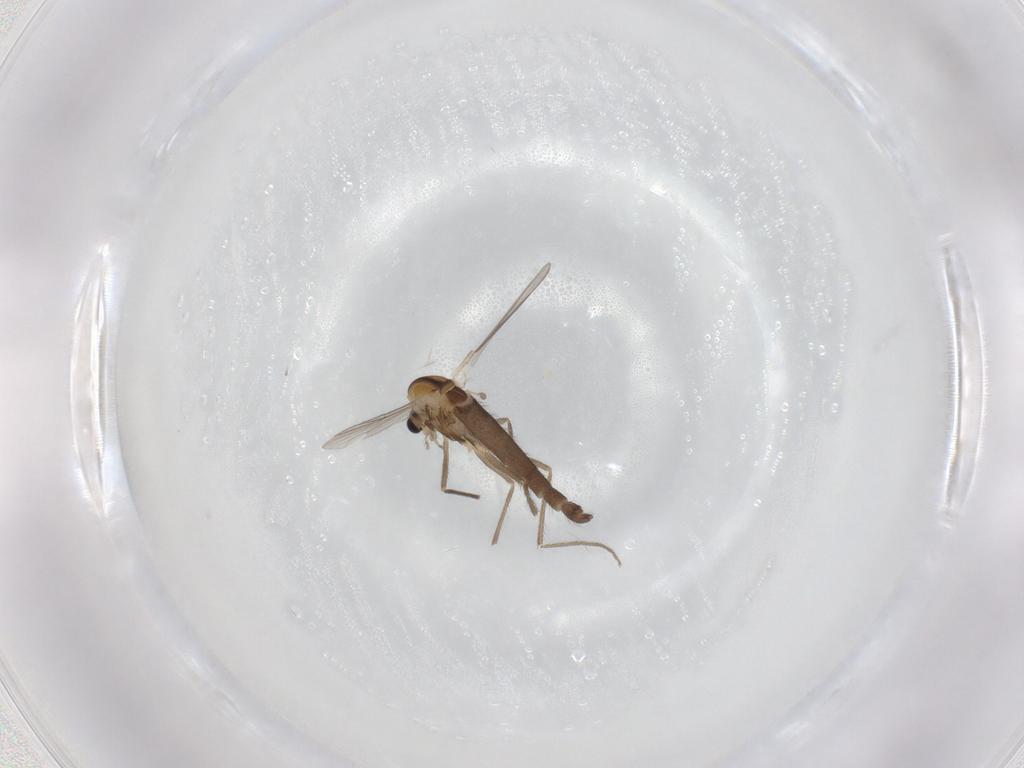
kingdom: Animalia
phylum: Arthropoda
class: Insecta
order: Diptera
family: Chironomidae
